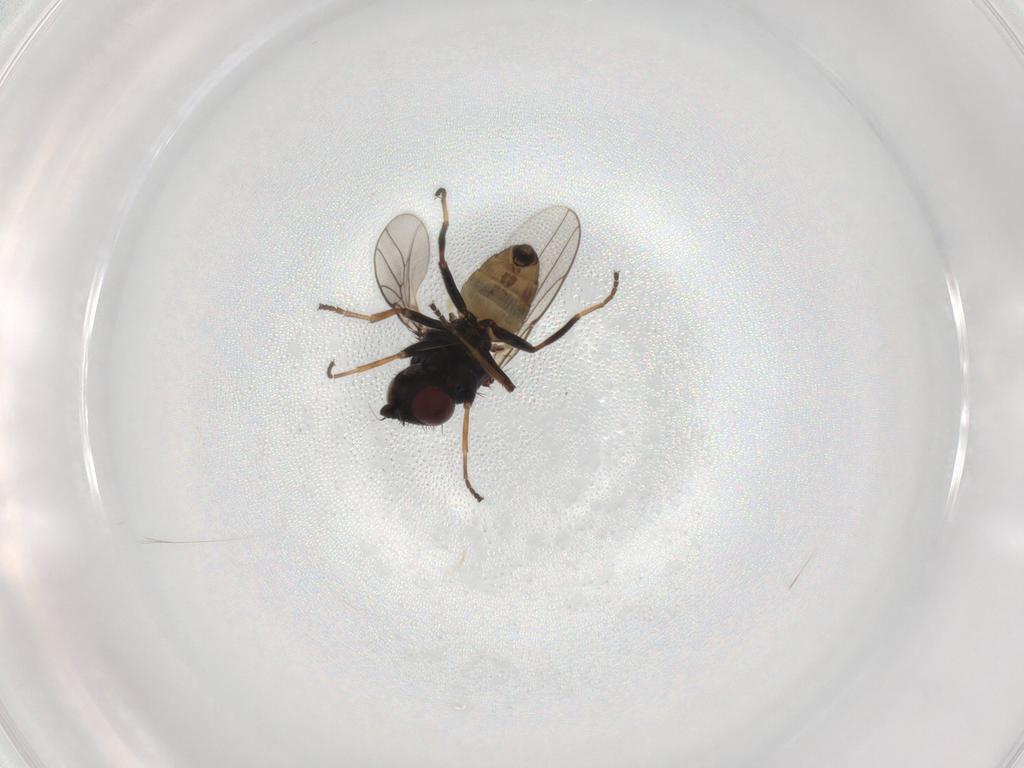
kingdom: Animalia
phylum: Arthropoda
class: Insecta
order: Diptera
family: Chloropidae
